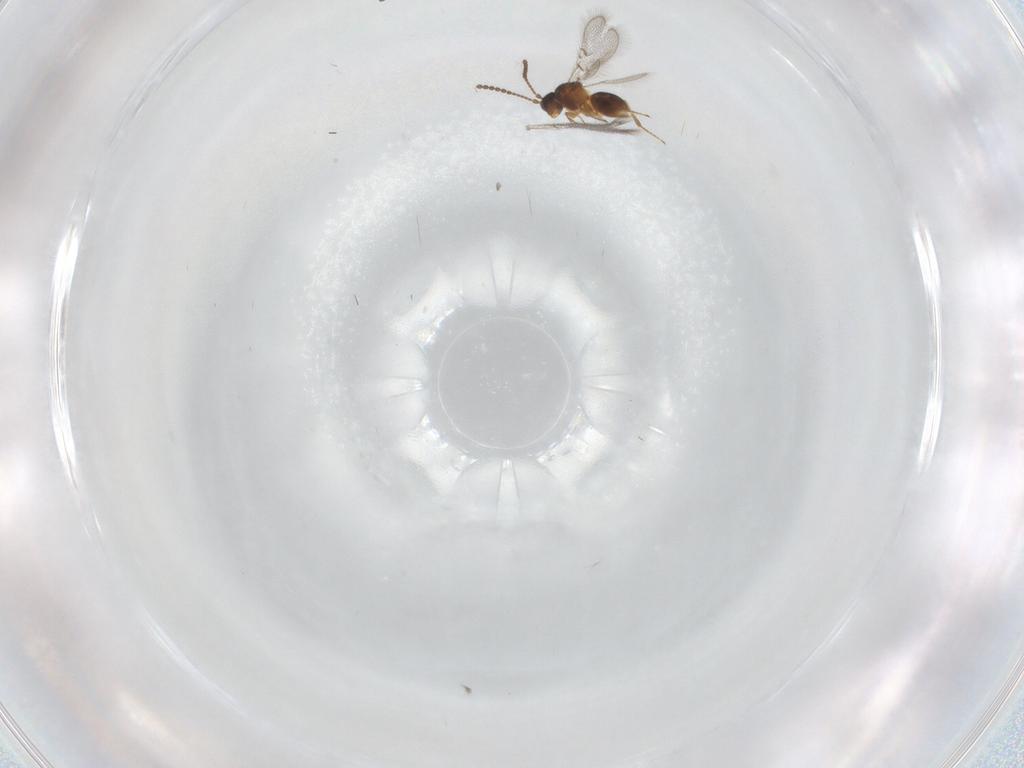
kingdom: Animalia
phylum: Arthropoda
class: Insecta
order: Hymenoptera
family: Figitidae
